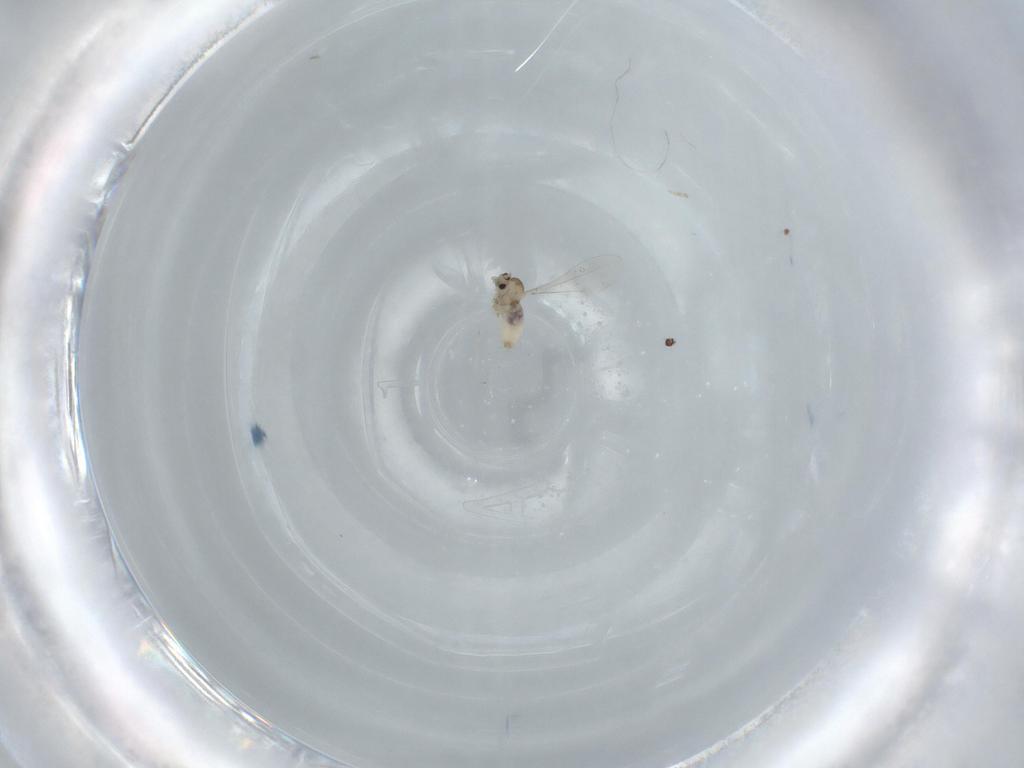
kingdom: Animalia
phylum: Arthropoda
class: Insecta
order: Diptera
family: Cecidomyiidae
